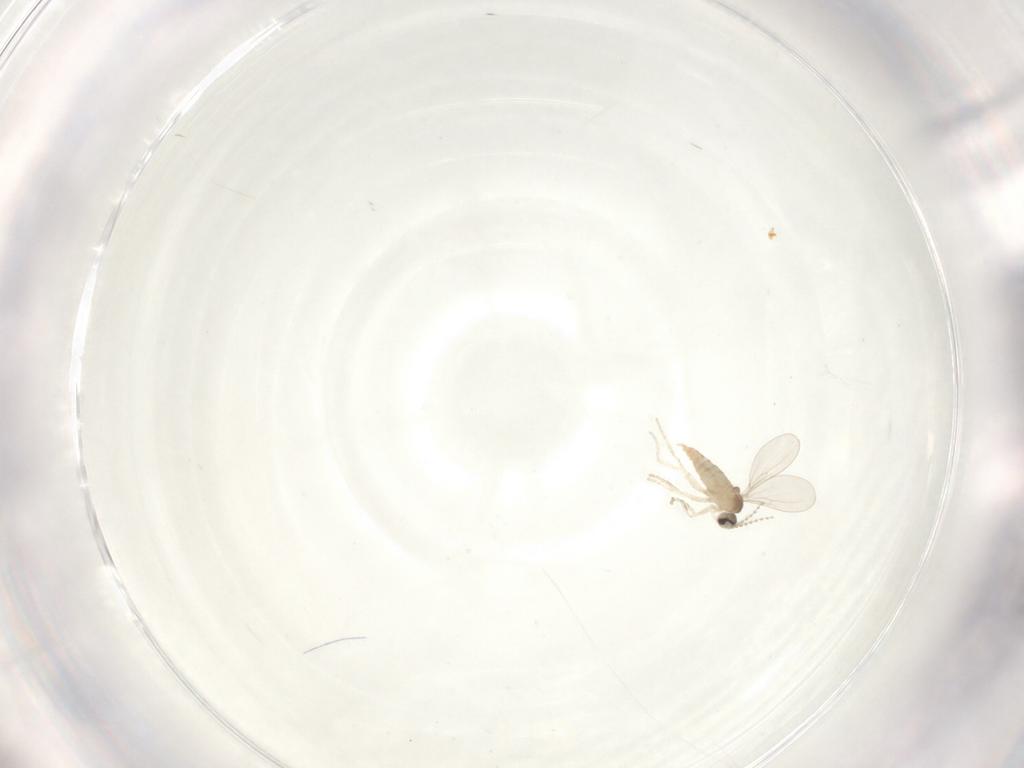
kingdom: Animalia
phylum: Arthropoda
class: Insecta
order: Diptera
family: Cecidomyiidae
